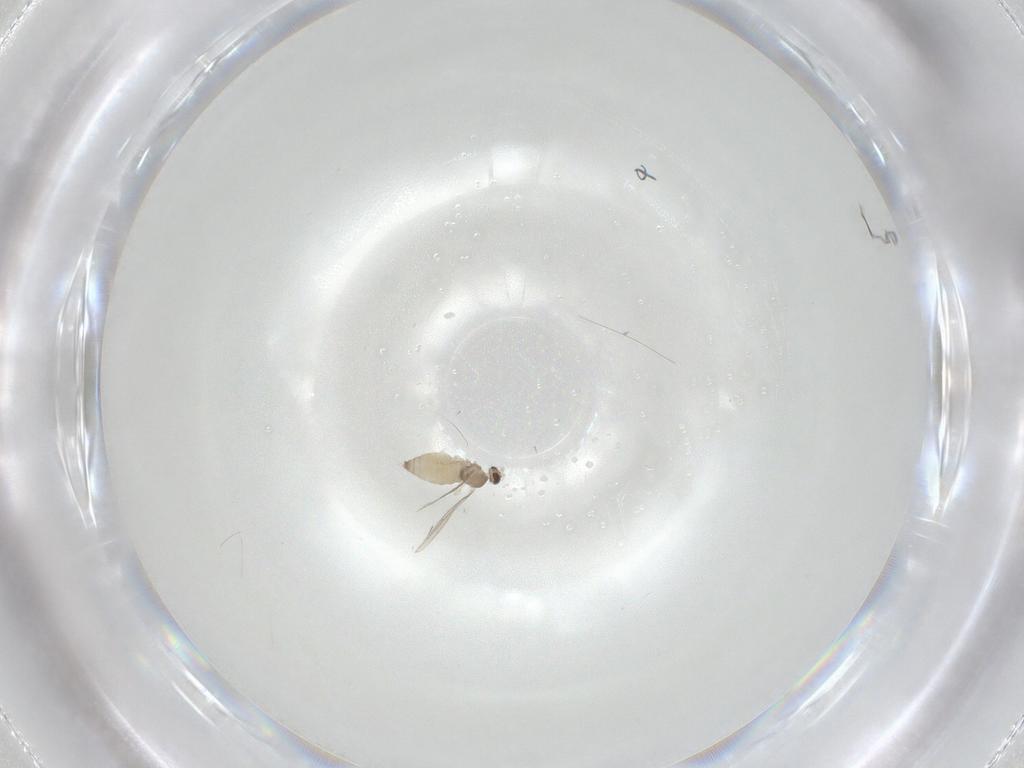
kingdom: Animalia
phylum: Arthropoda
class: Insecta
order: Diptera
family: Cecidomyiidae
